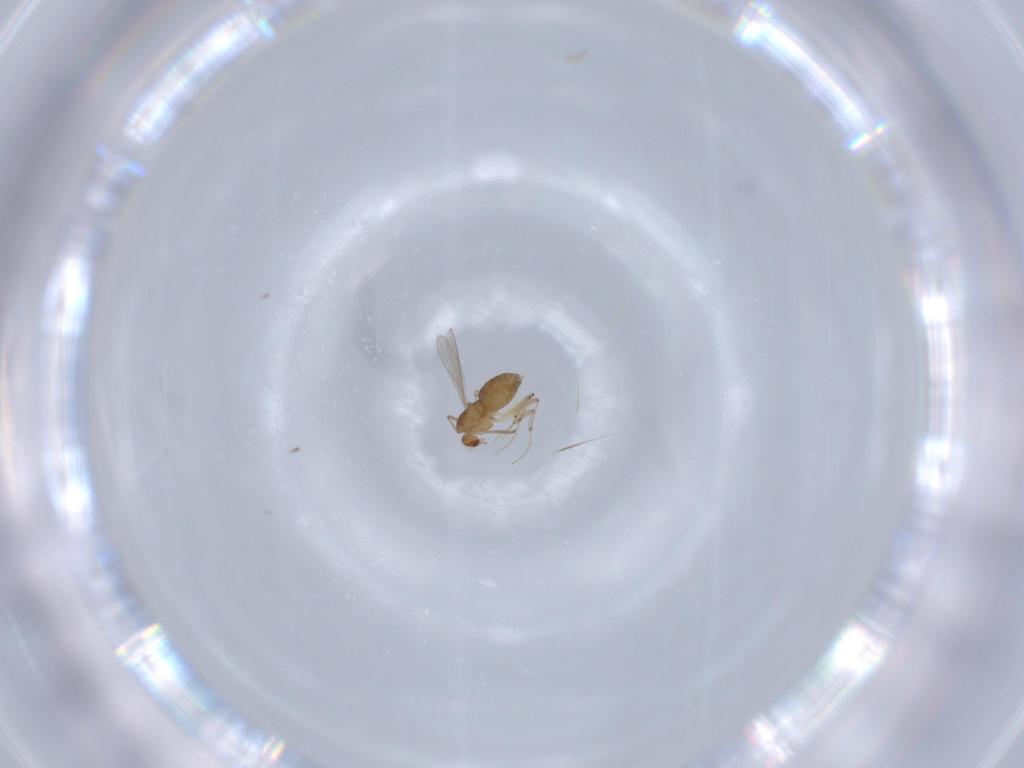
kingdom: Animalia
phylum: Arthropoda
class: Insecta
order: Diptera
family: Chironomidae
